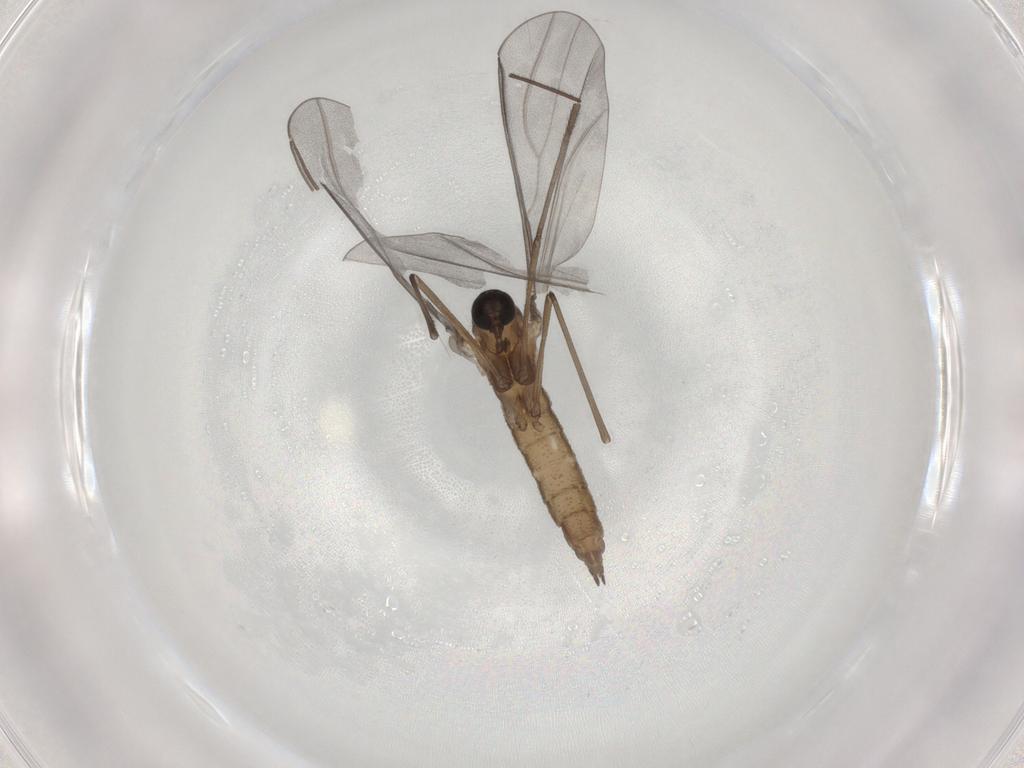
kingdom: Animalia
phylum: Arthropoda
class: Insecta
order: Diptera
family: Cecidomyiidae
